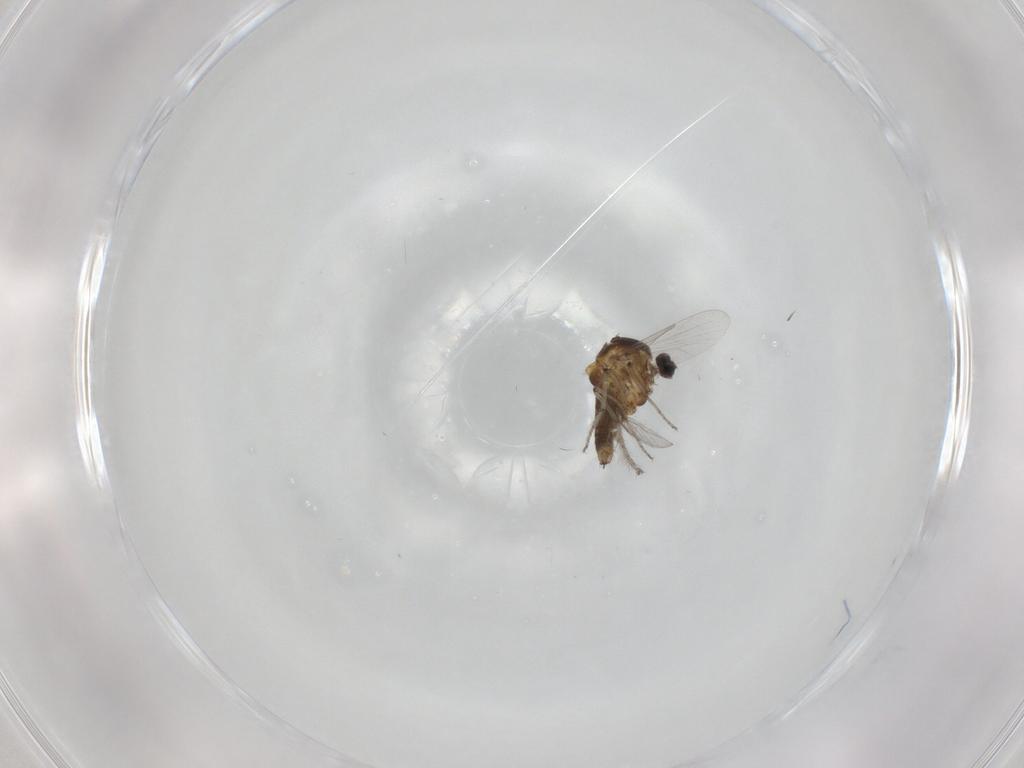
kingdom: Animalia
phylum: Arthropoda
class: Insecta
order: Diptera
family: Ceratopogonidae
